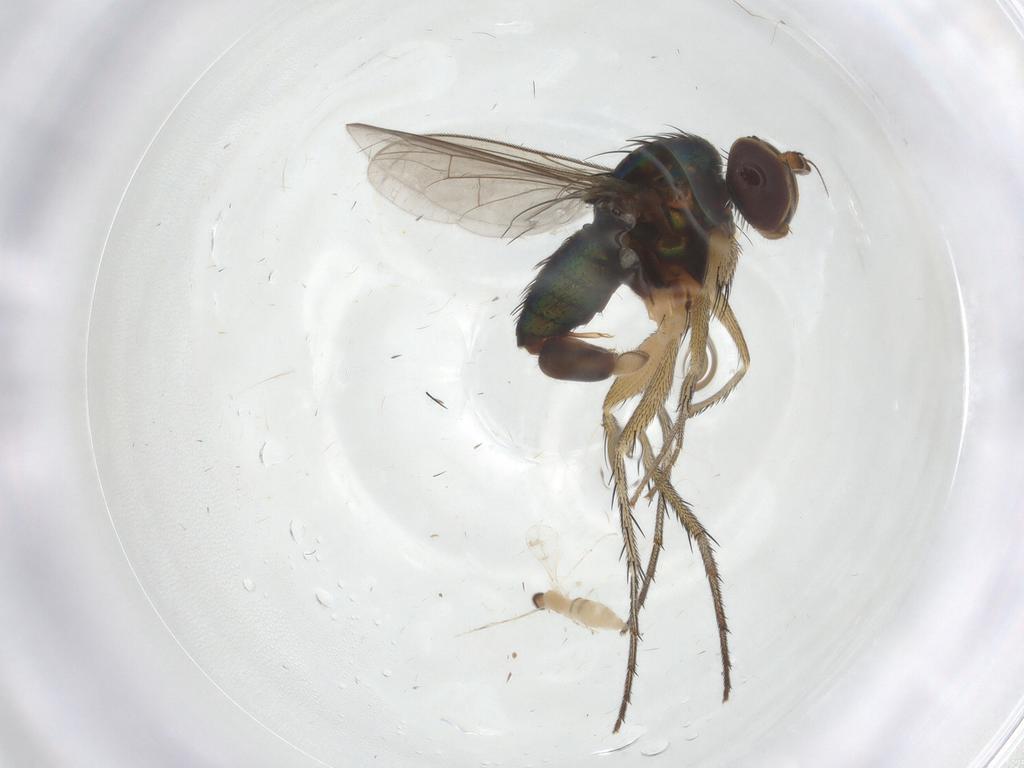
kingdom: Animalia
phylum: Arthropoda
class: Insecta
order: Diptera
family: Dolichopodidae
